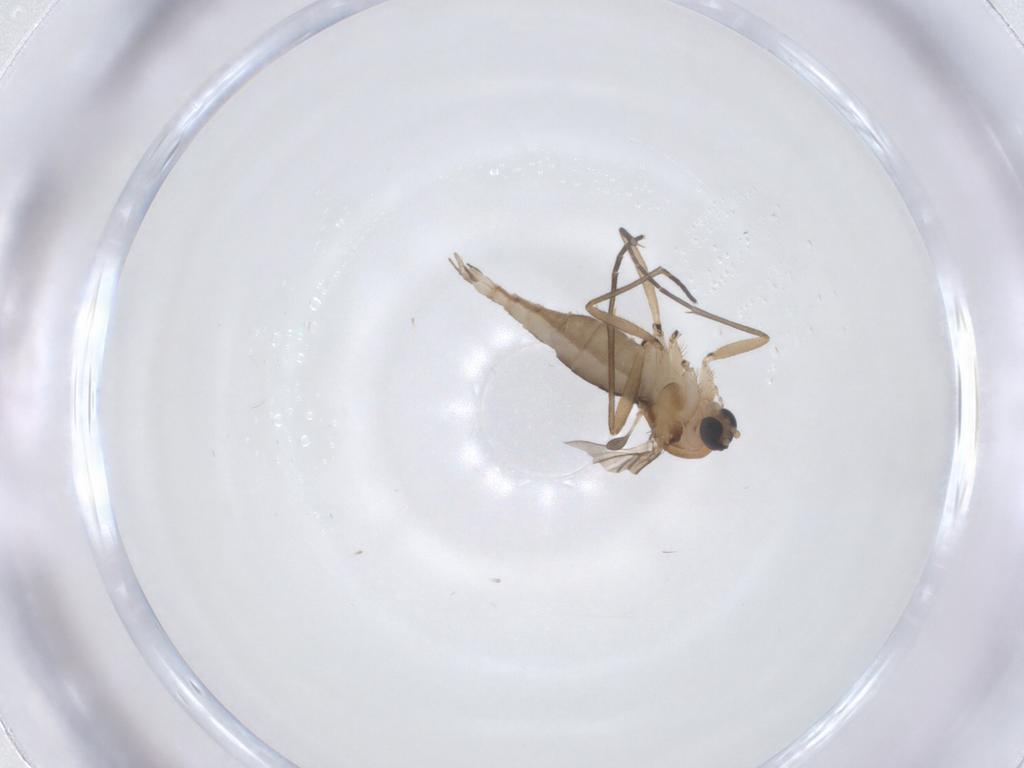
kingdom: Animalia
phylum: Arthropoda
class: Insecta
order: Diptera
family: Sciaridae
